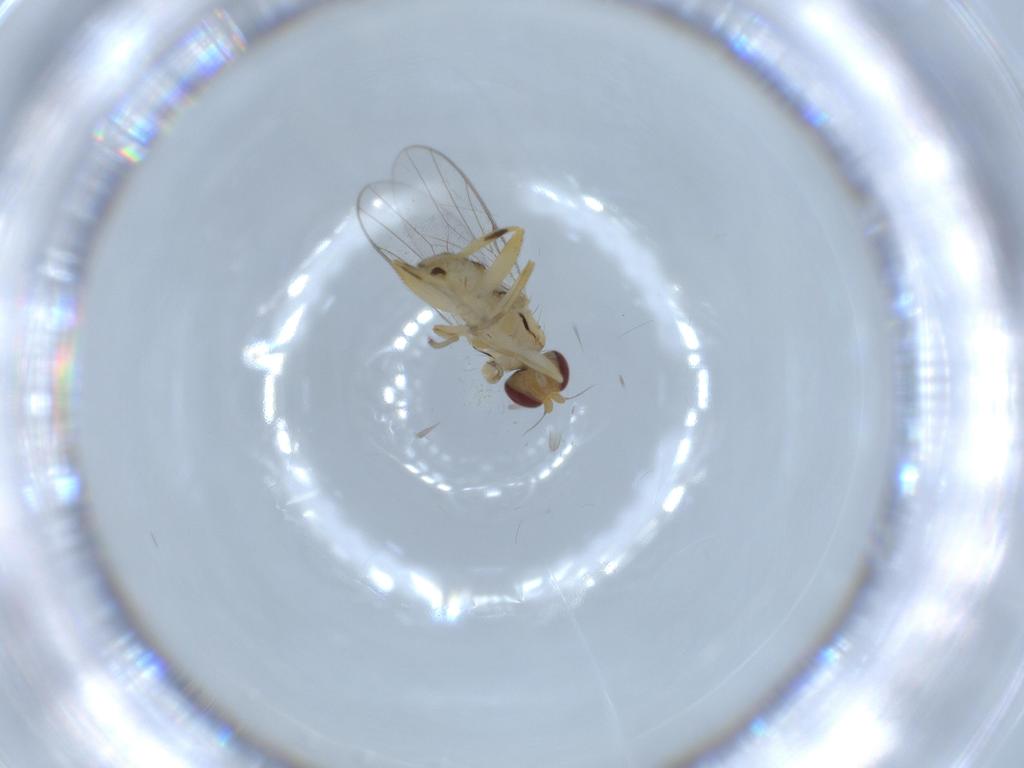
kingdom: Animalia
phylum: Arthropoda
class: Insecta
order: Diptera
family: Chloropidae
